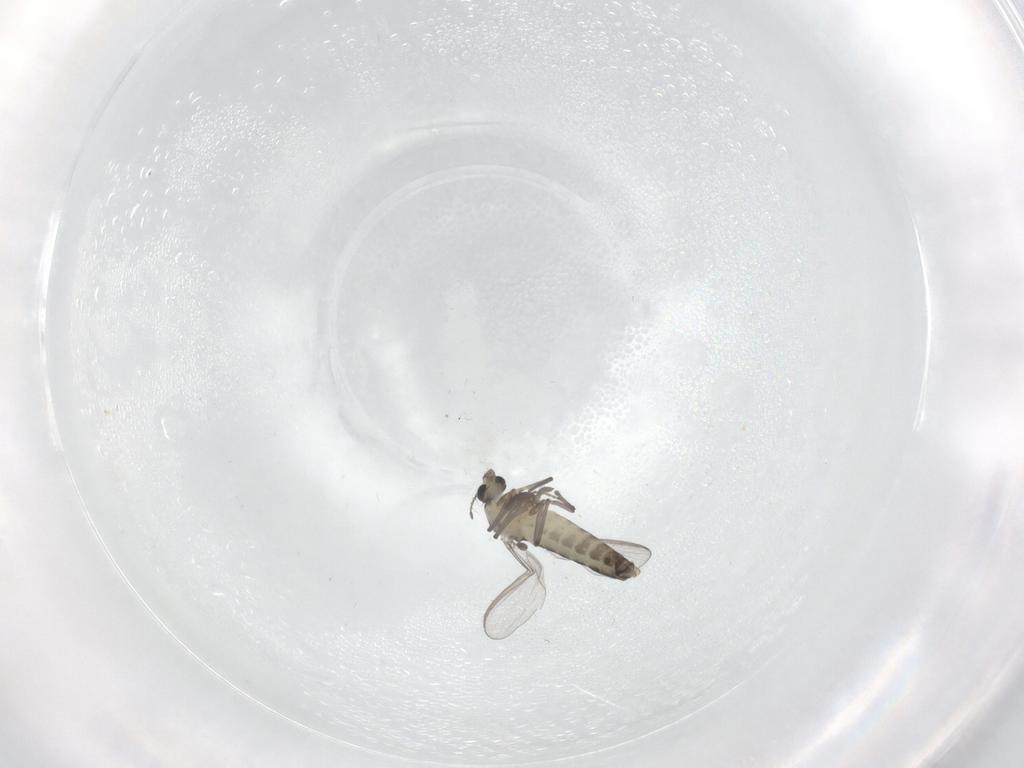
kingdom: Animalia
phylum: Arthropoda
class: Insecta
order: Diptera
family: Chironomidae
